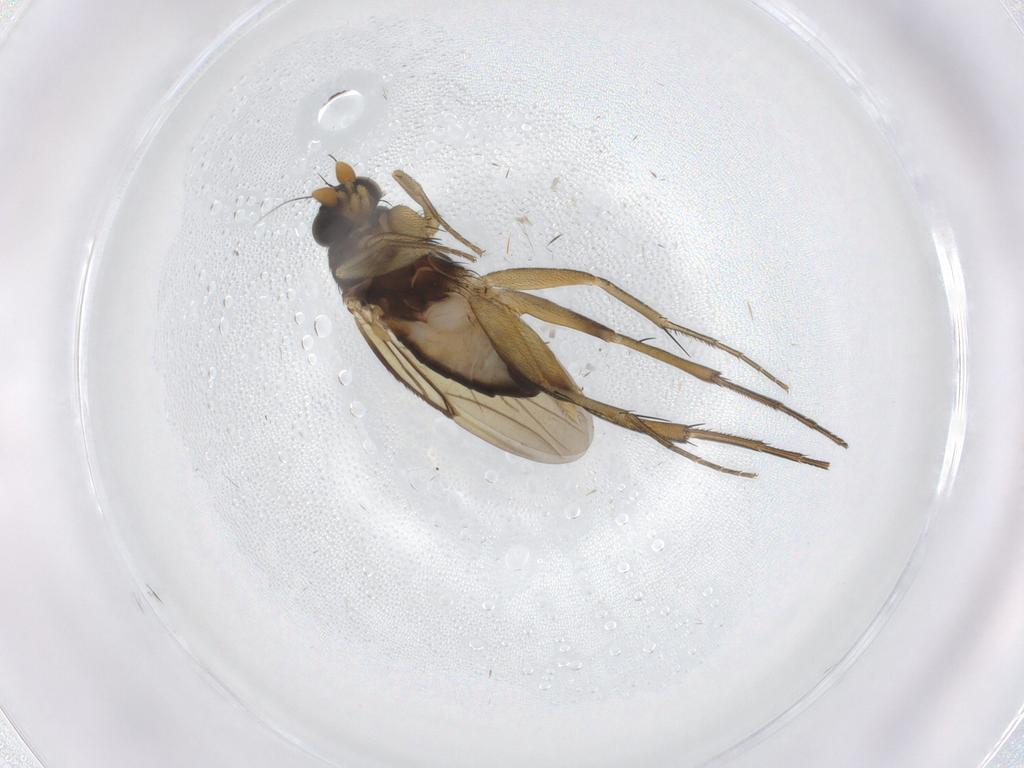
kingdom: Animalia
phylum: Arthropoda
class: Insecta
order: Diptera
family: Phoridae
